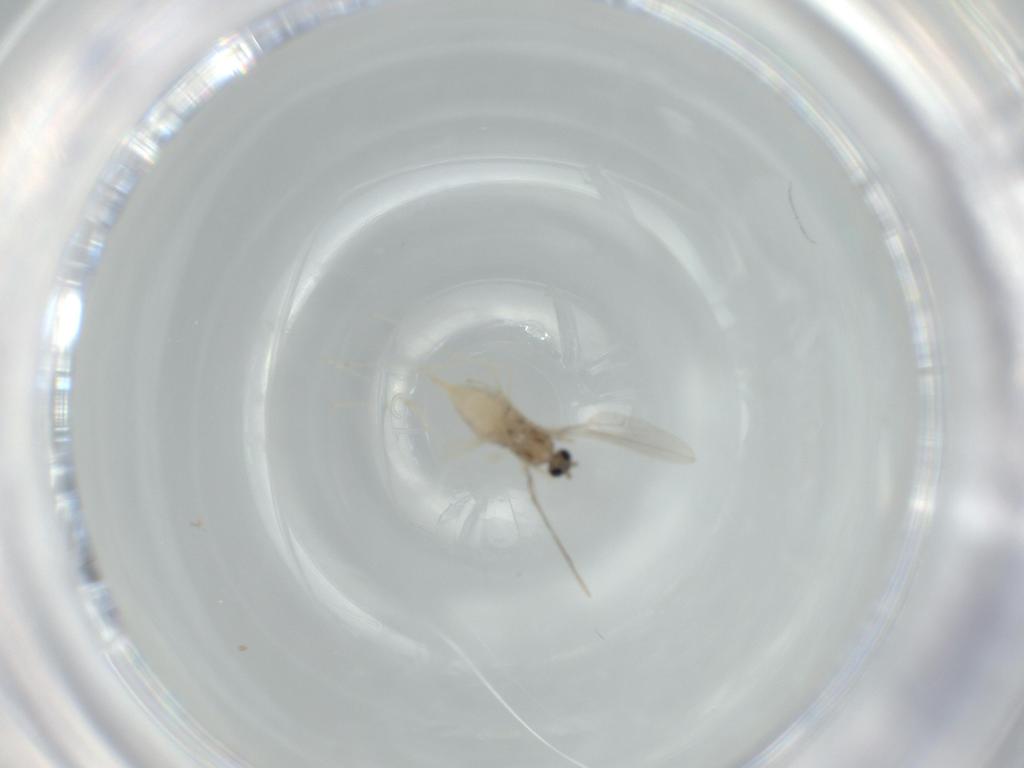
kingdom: Animalia
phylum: Arthropoda
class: Insecta
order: Diptera
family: Cecidomyiidae
